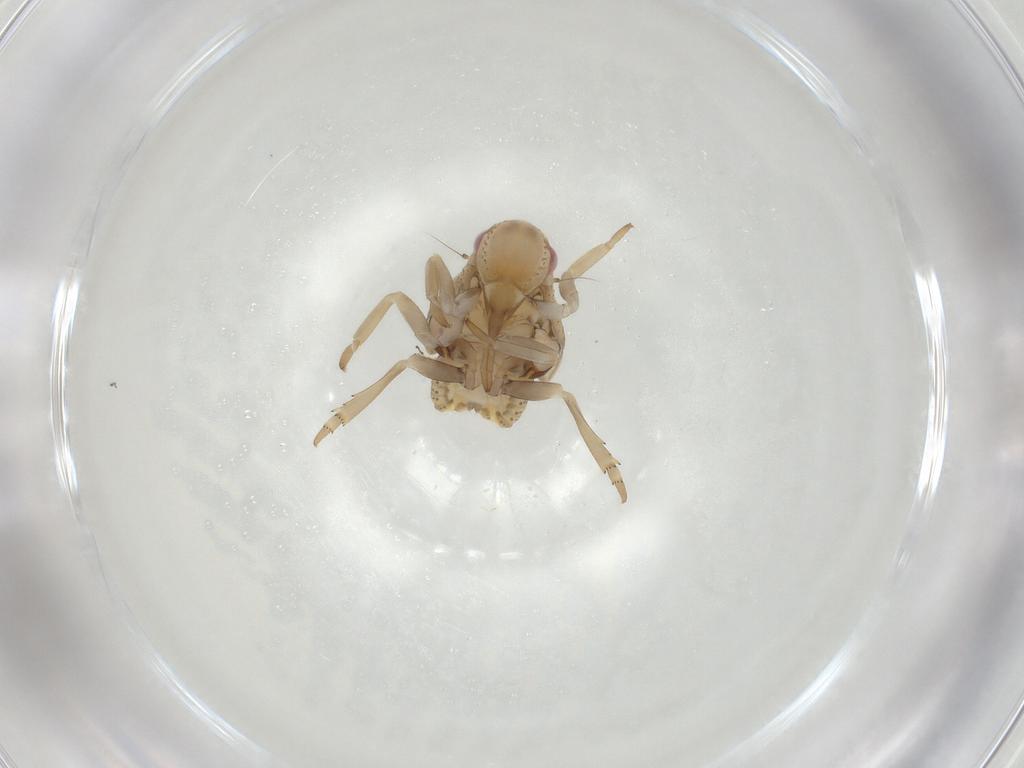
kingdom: Animalia
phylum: Arthropoda
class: Insecta
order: Hemiptera
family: Flatidae
